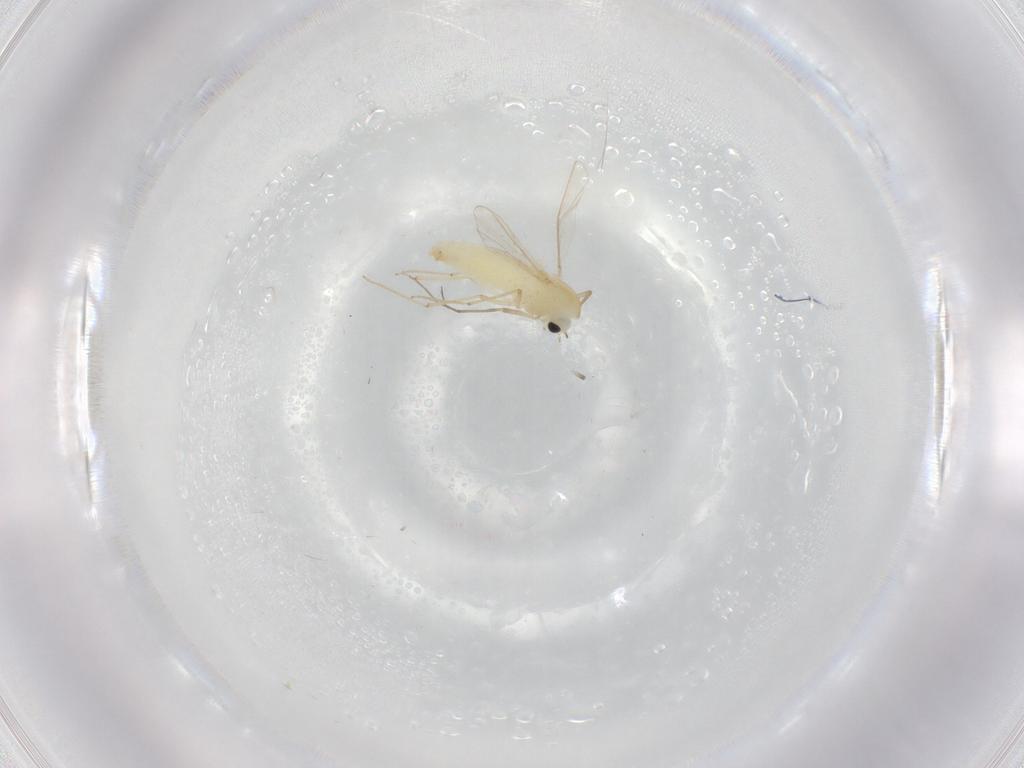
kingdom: Animalia
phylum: Arthropoda
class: Insecta
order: Diptera
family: Chironomidae
